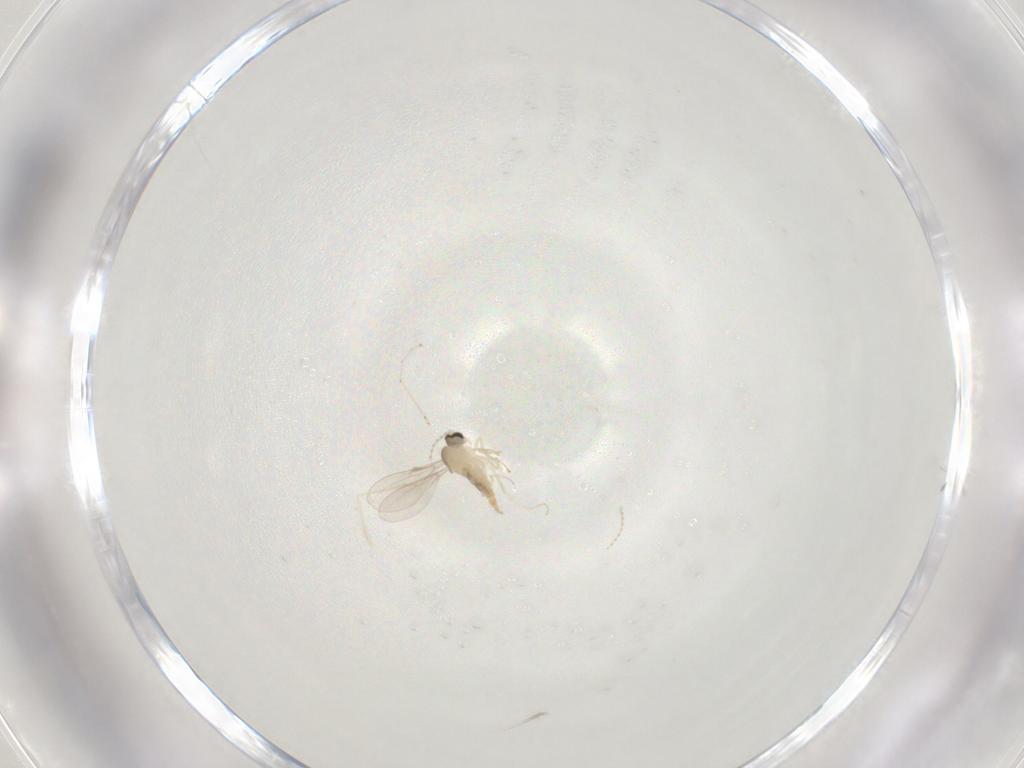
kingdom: Animalia
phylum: Arthropoda
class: Insecta
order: Diptera
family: Cecidomyiidae
